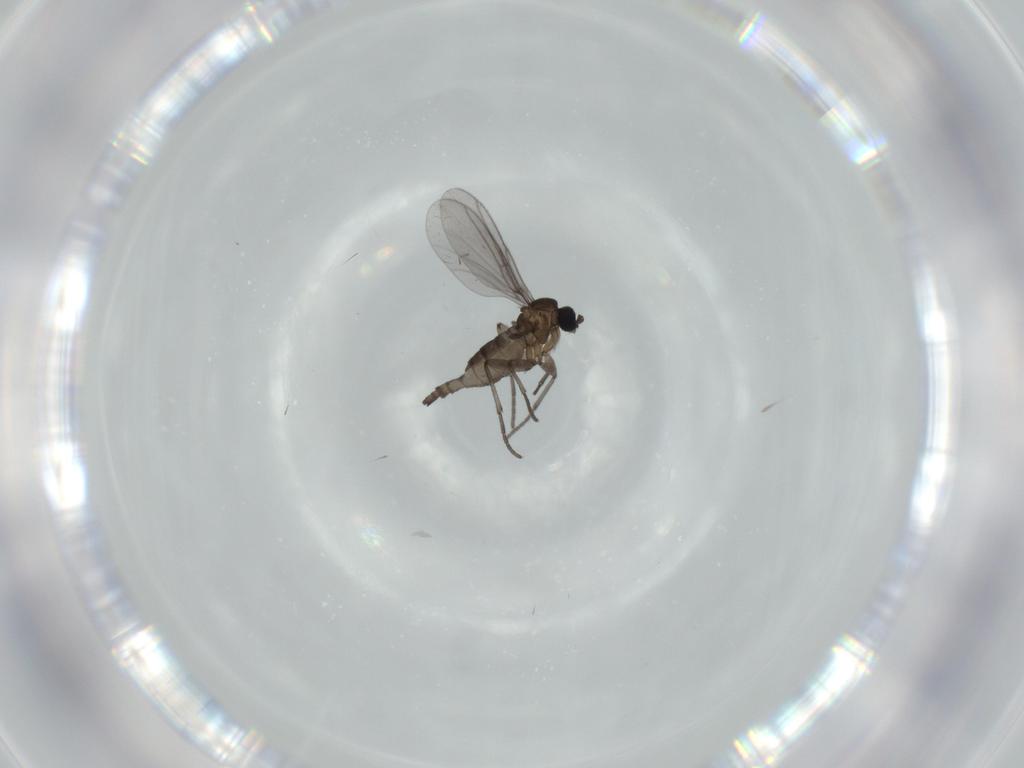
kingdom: Animalia
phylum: Arthropoda
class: Insecta
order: Diptera
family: Phoridae
